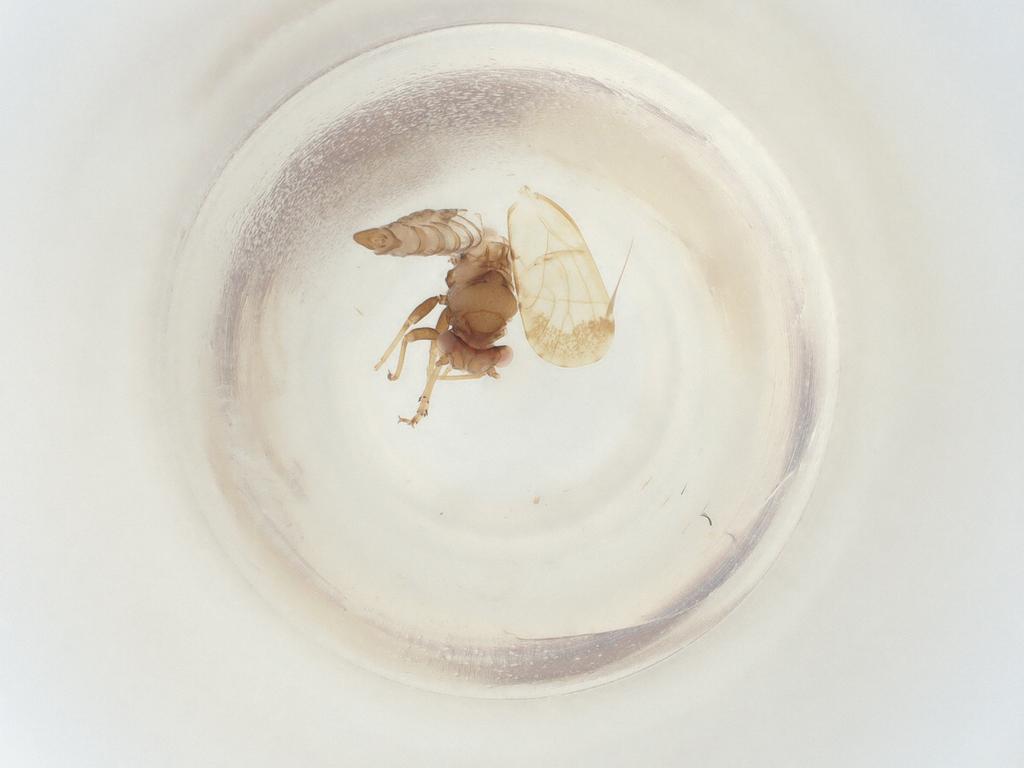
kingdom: Animalia
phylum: Arthropoda
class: Insecta
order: Hemiptera
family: Psyllidae
